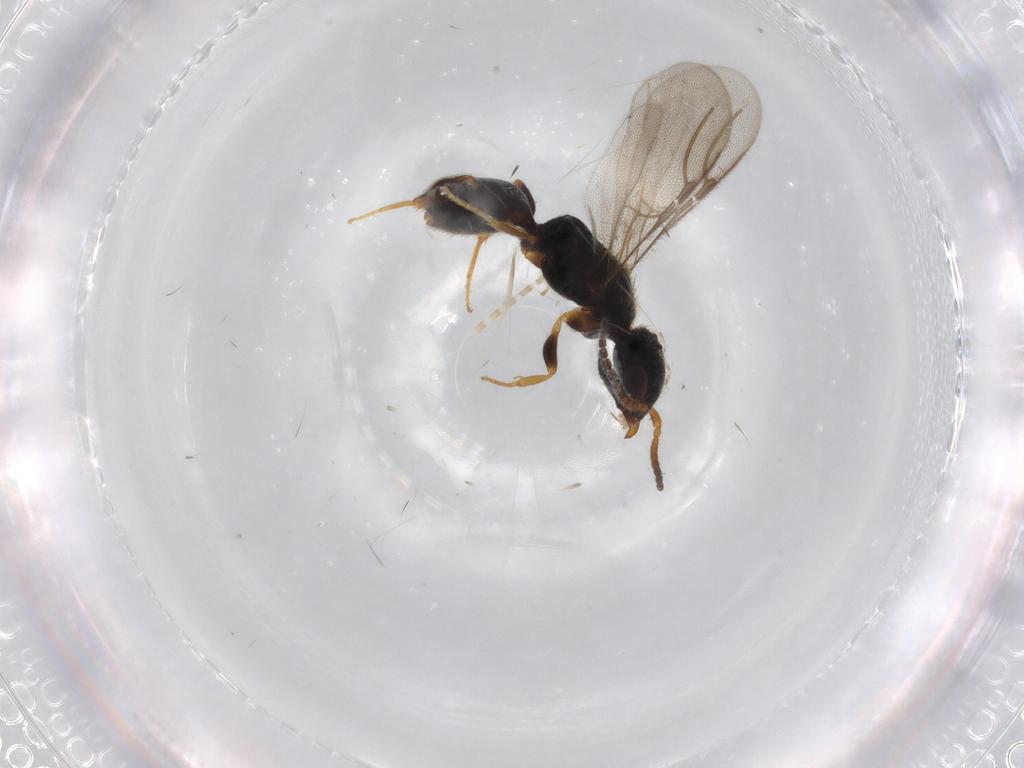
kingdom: Animalia
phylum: Arthropoda
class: Insecta
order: Hymenoptera
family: Bethylidae
